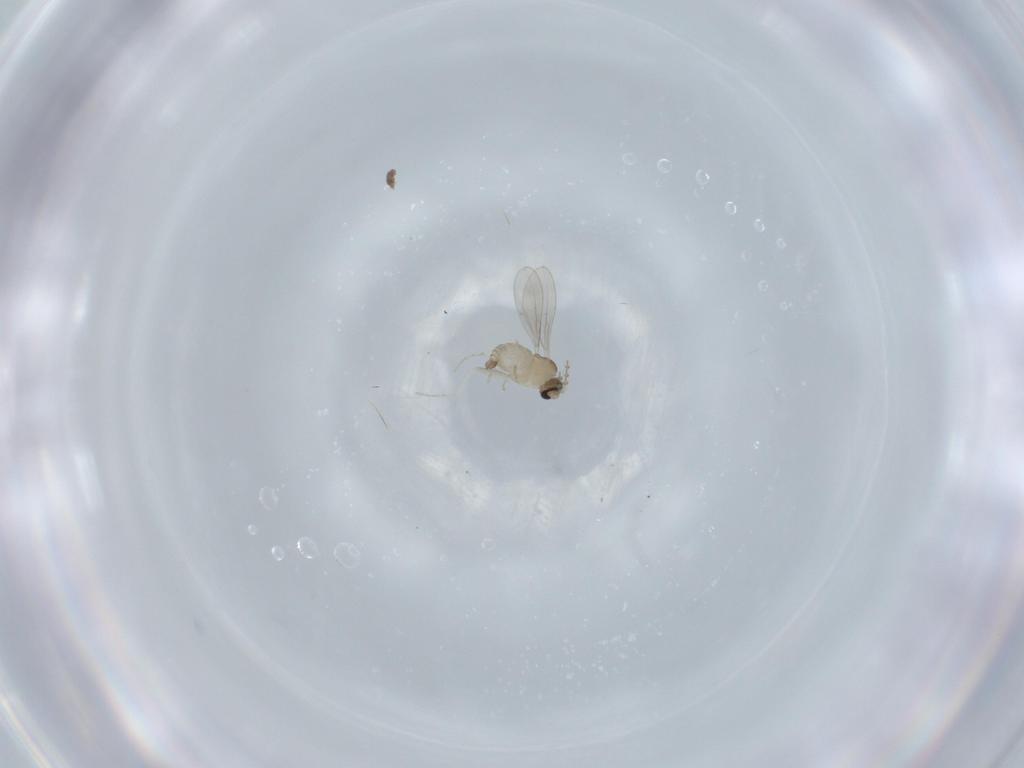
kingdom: Animalia
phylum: Arthropoda
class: Insecta
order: Diptera
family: Cecidomyiidae
